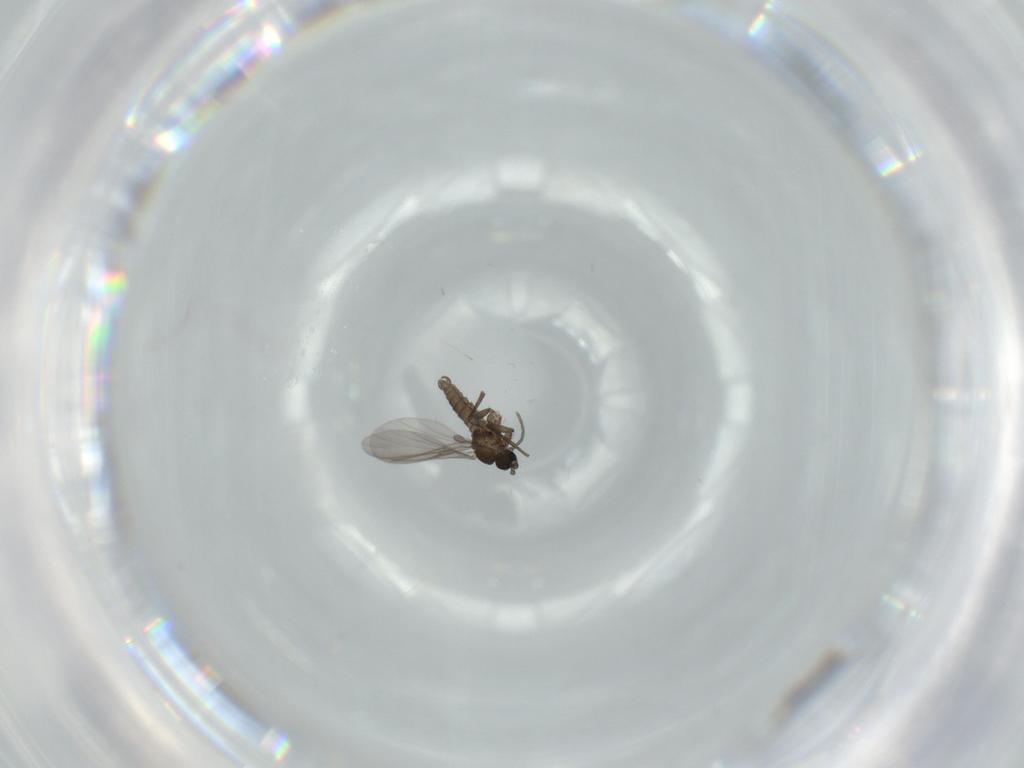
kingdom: Animalia
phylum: Arthropoda
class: Insecta
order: Diptera
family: Sciaridae
